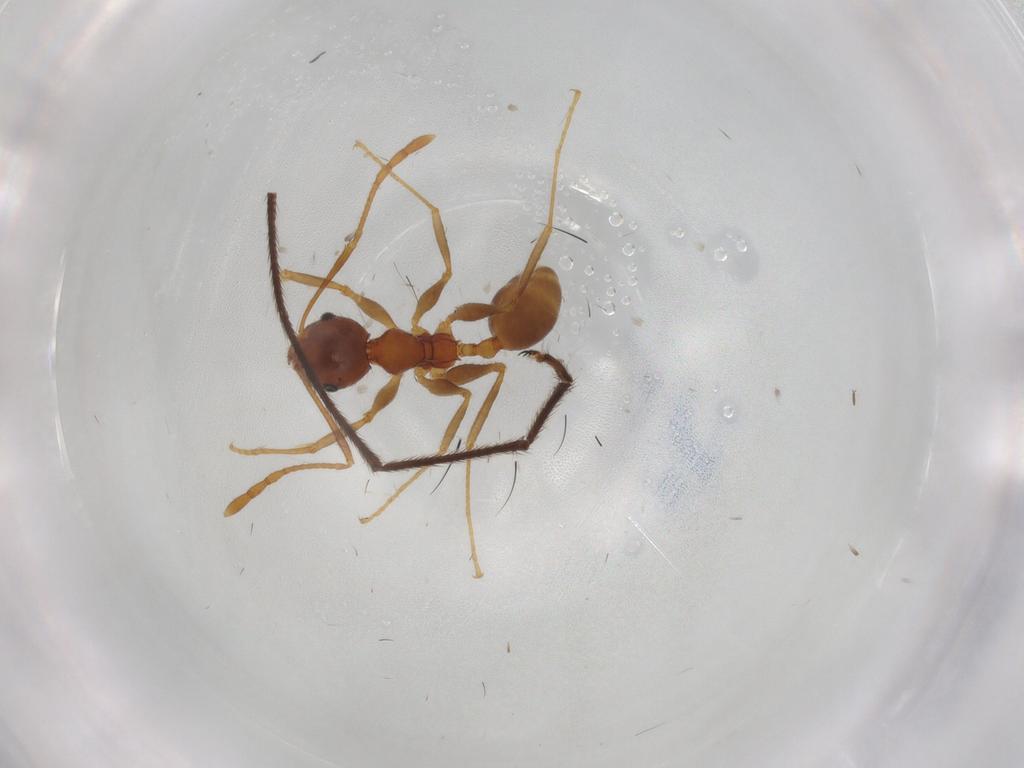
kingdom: Animalia
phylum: Arthropoda
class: Insecta
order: Hymenoptera
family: Formicidae
